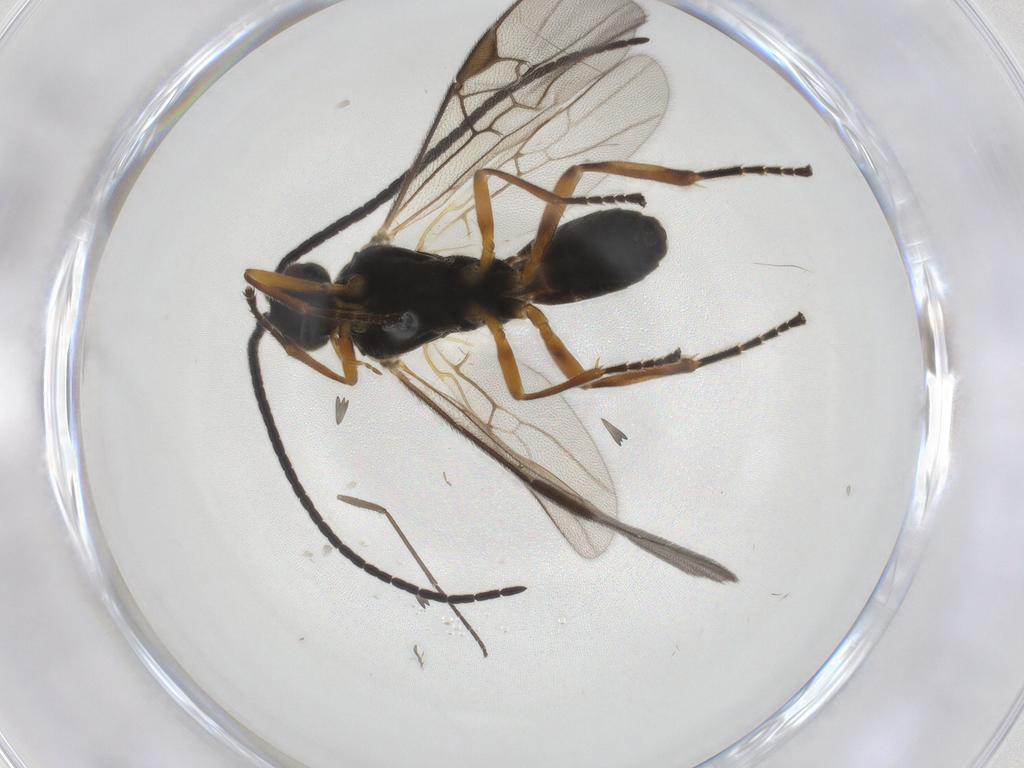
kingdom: Animalia
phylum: Arthropoda
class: Insecta
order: Hymenoptera
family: Braconidae
